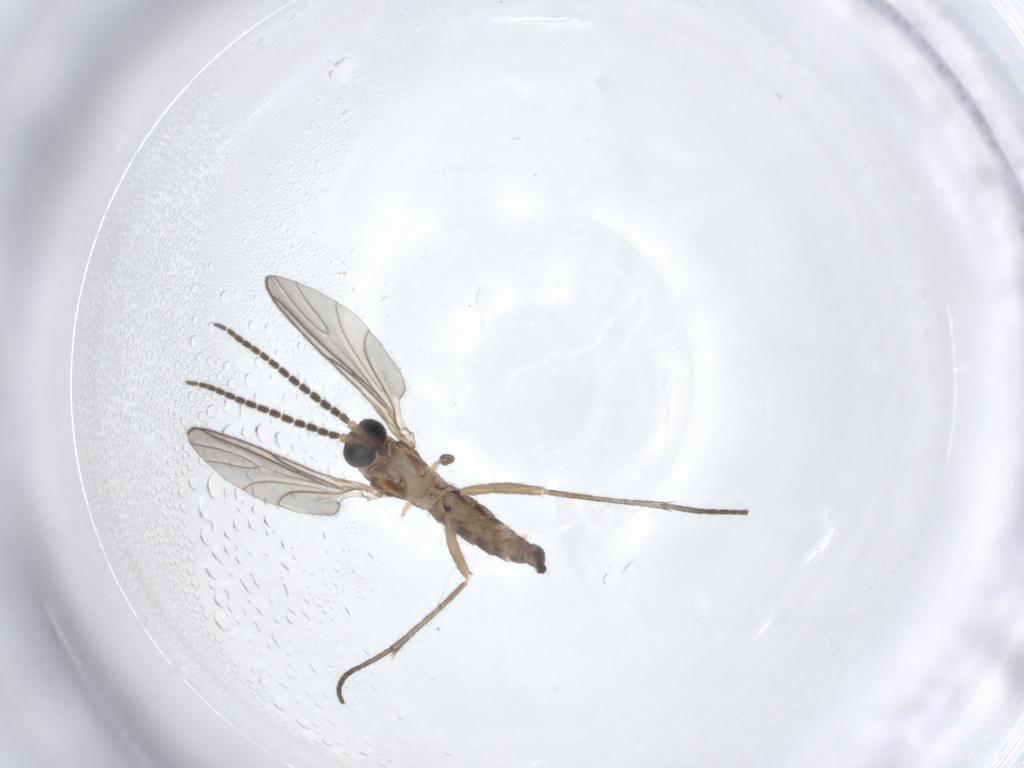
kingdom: Animalia
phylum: Arthropoda
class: Insecta
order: Diptera
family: Sciaridae
